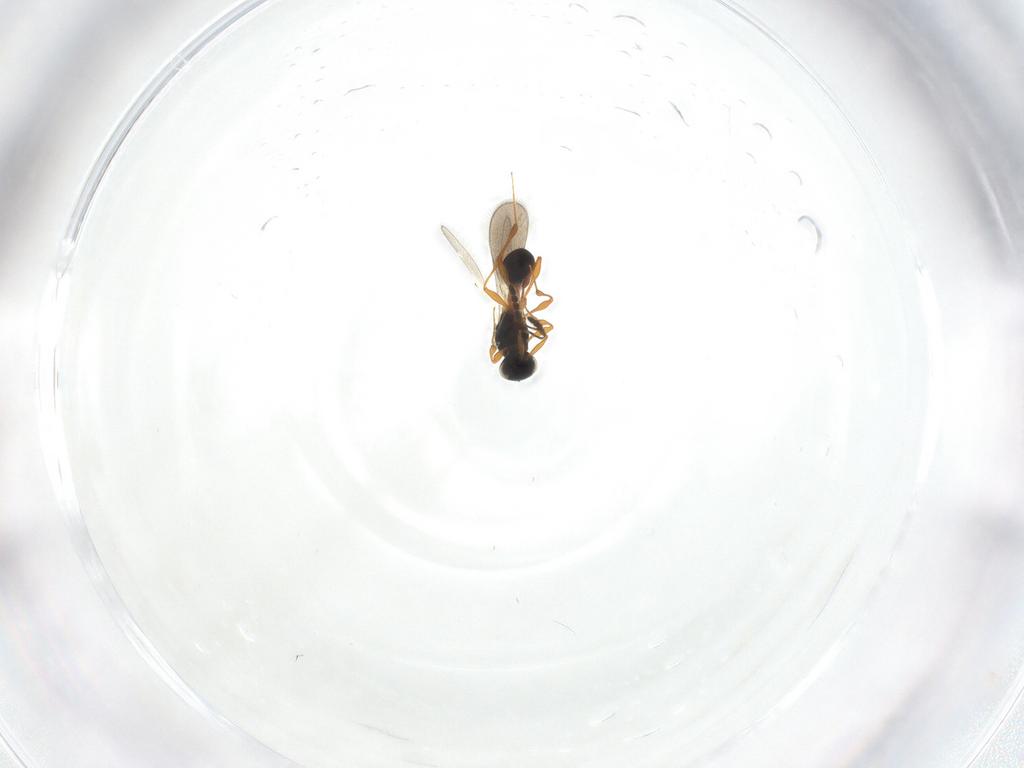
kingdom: Animalia
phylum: Arthropoda
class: Insecta
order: Hymenoptera
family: Platygastridae
